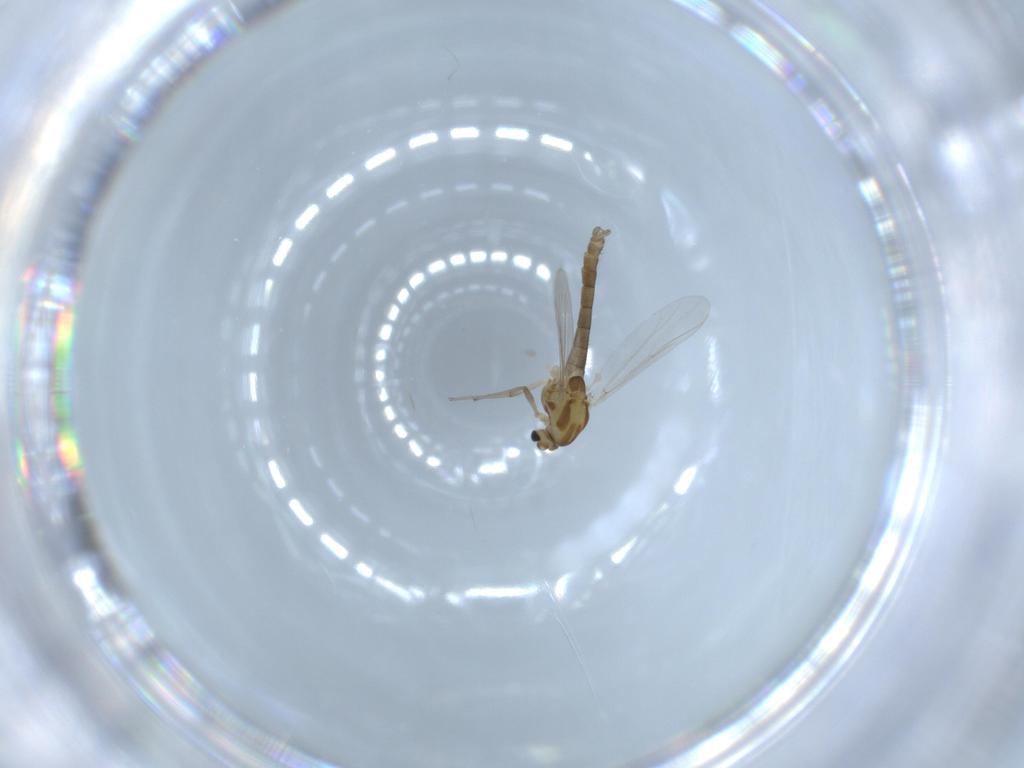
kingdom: Animalia
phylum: Arthropoda
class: Insecta
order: Diptera
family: Chironomidae
